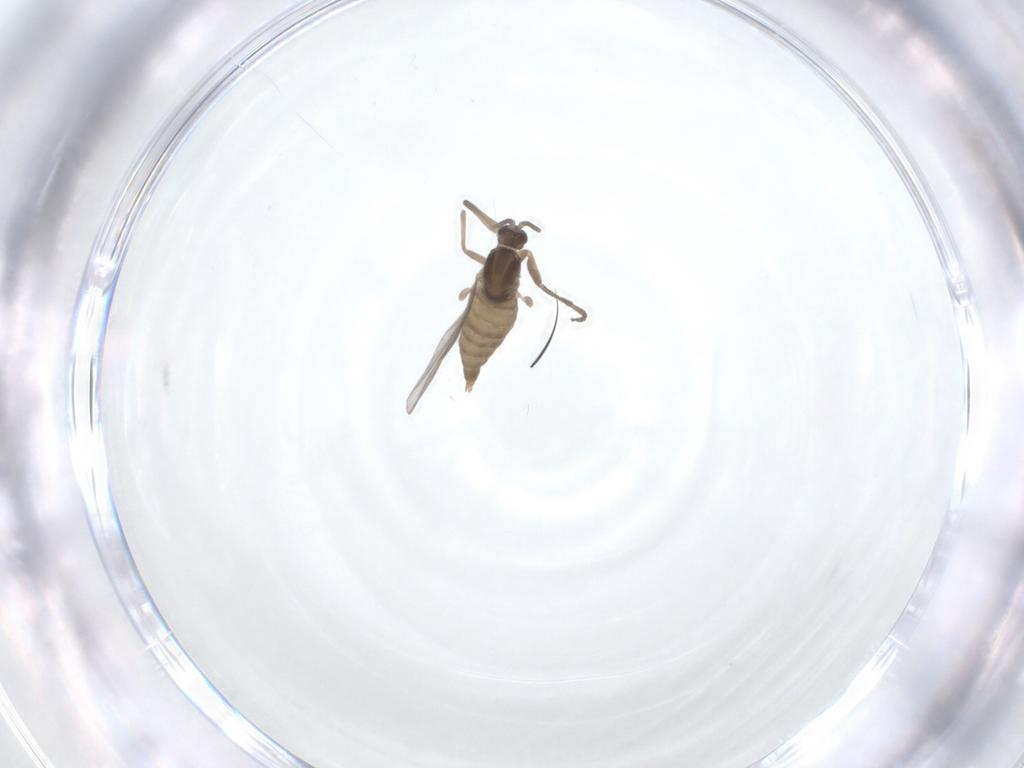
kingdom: Animalia
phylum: Arthropoda
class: Insecta
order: Diptera
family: Cecidomyiidae
